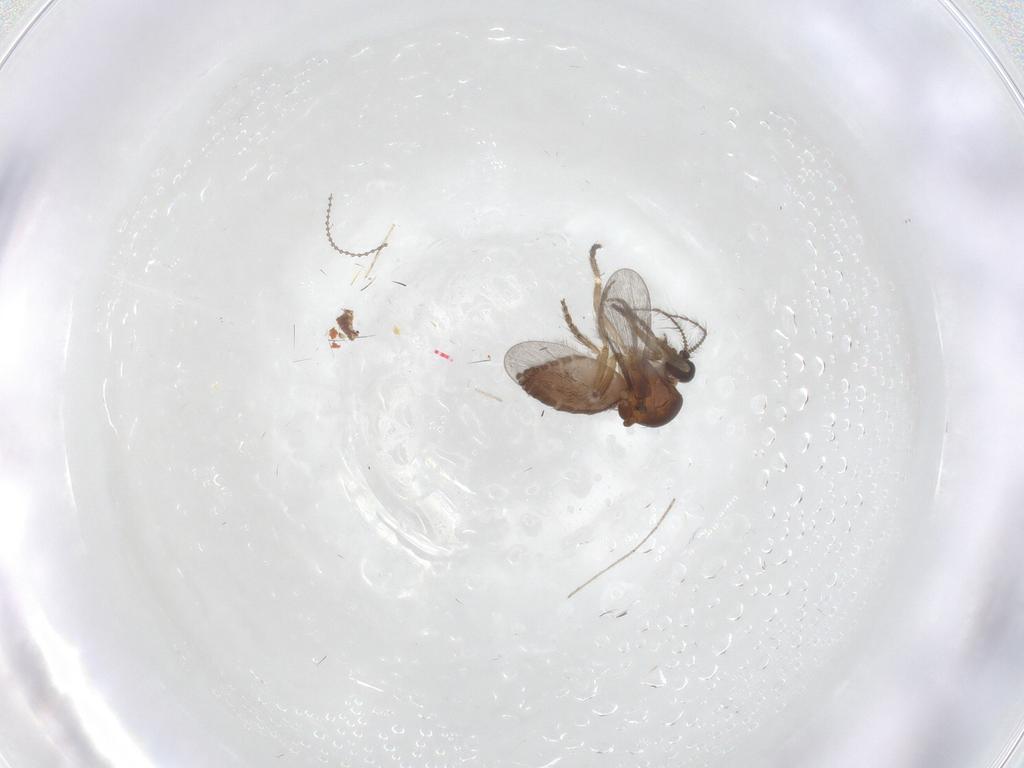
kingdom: Animalia
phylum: Arthropoda
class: Insecta
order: Diptera
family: Ceratopogonidae
